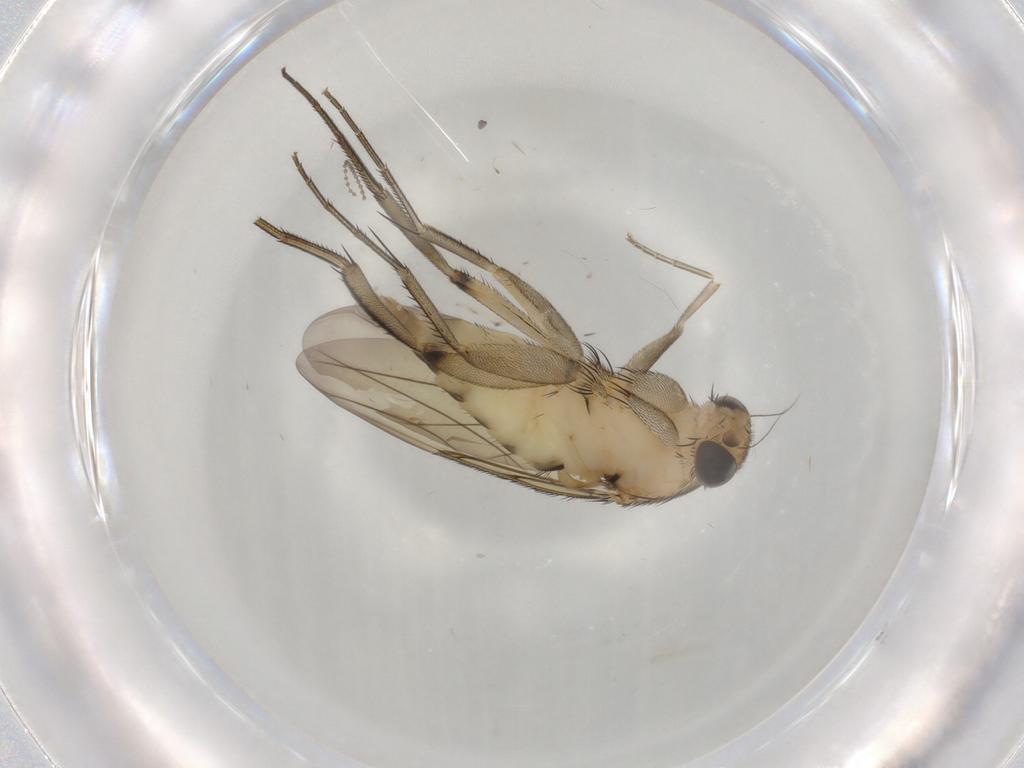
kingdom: Animalia
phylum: Arthropoda
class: Insecta
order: Diptera
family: Phoridae
